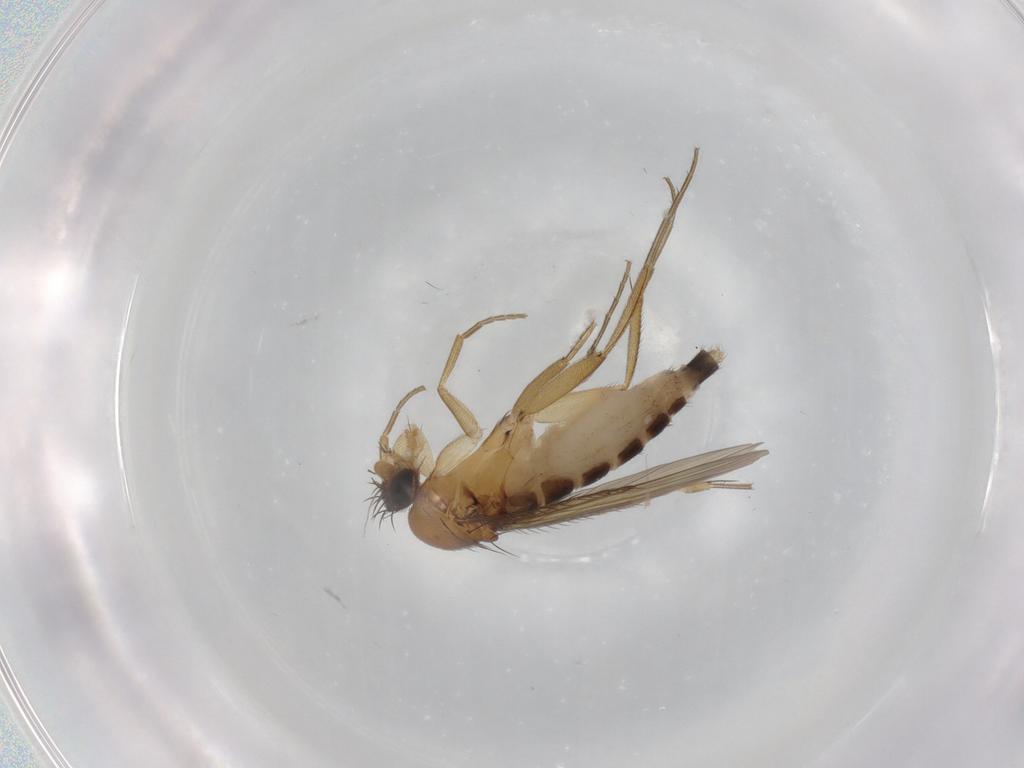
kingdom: Animalia
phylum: Arthropoda
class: Insecta
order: Diptera
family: Phoridae
